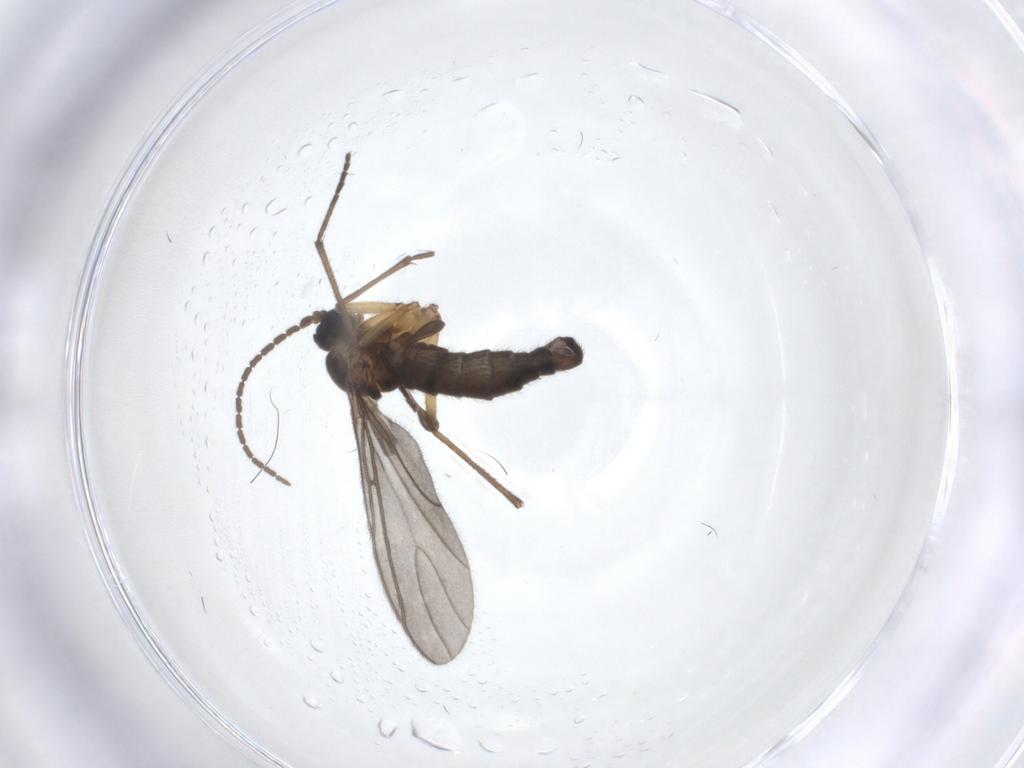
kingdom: Animalia
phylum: Arthropoda
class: Insecta
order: Diptera
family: Sciaridae
